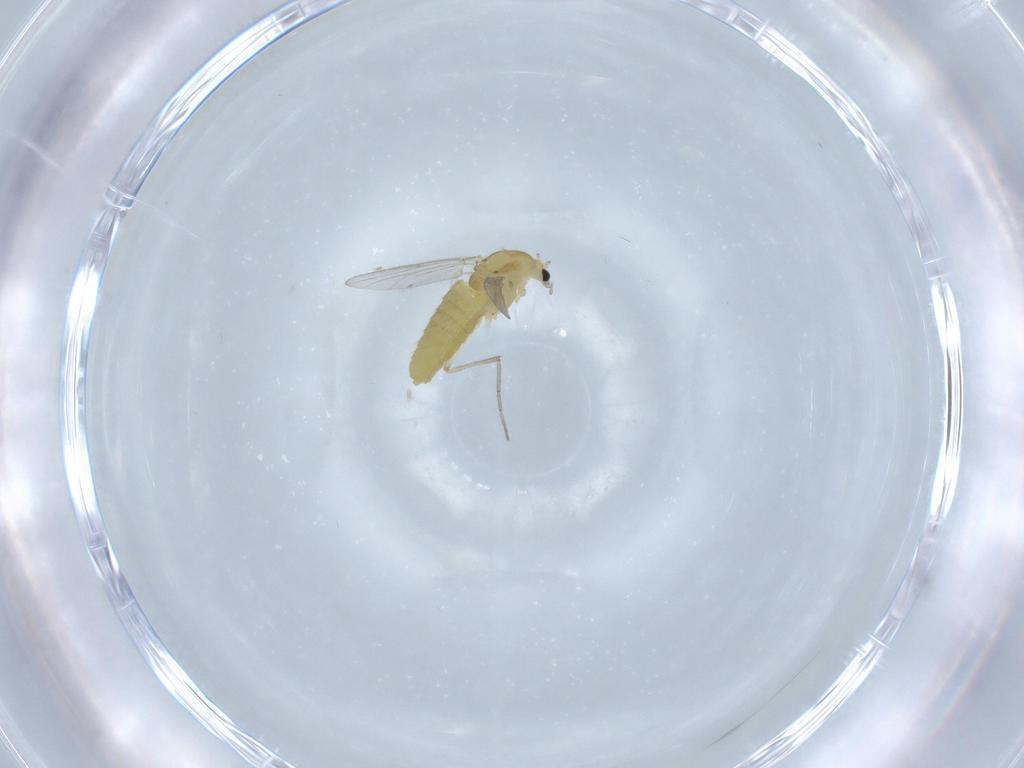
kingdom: Animalia
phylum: Arthropoda
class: Insecta
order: Diptera
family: Chironomidae
